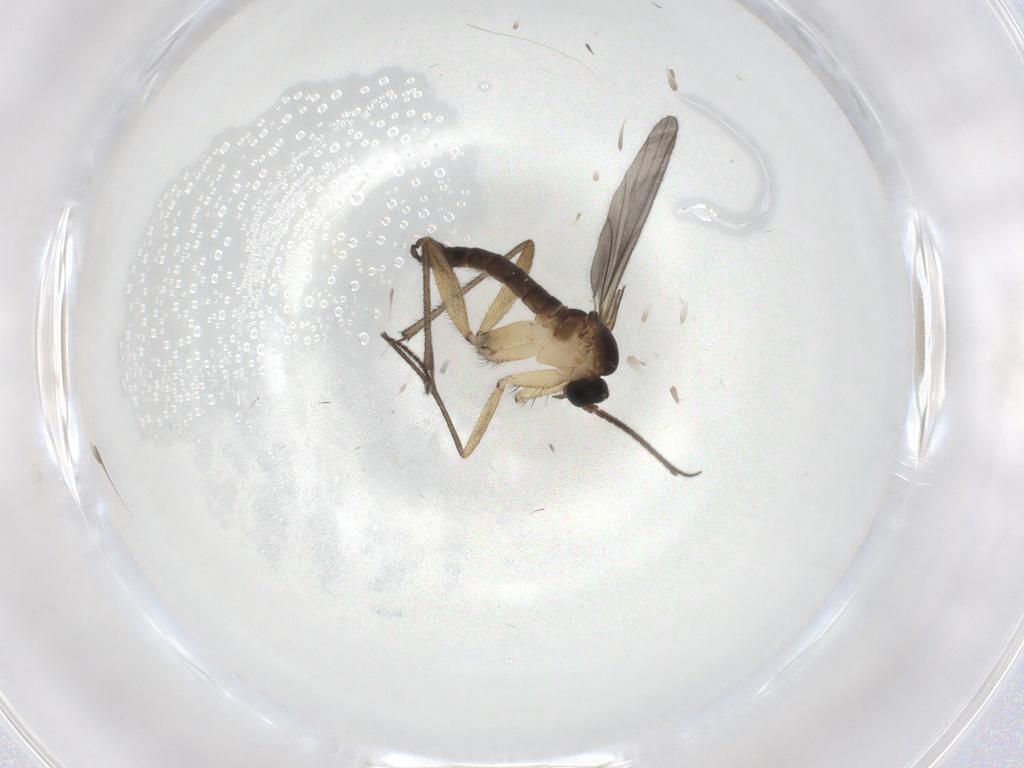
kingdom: Animalia
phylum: Arthropoda
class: Insecta
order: Diptera
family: Sciaridae
